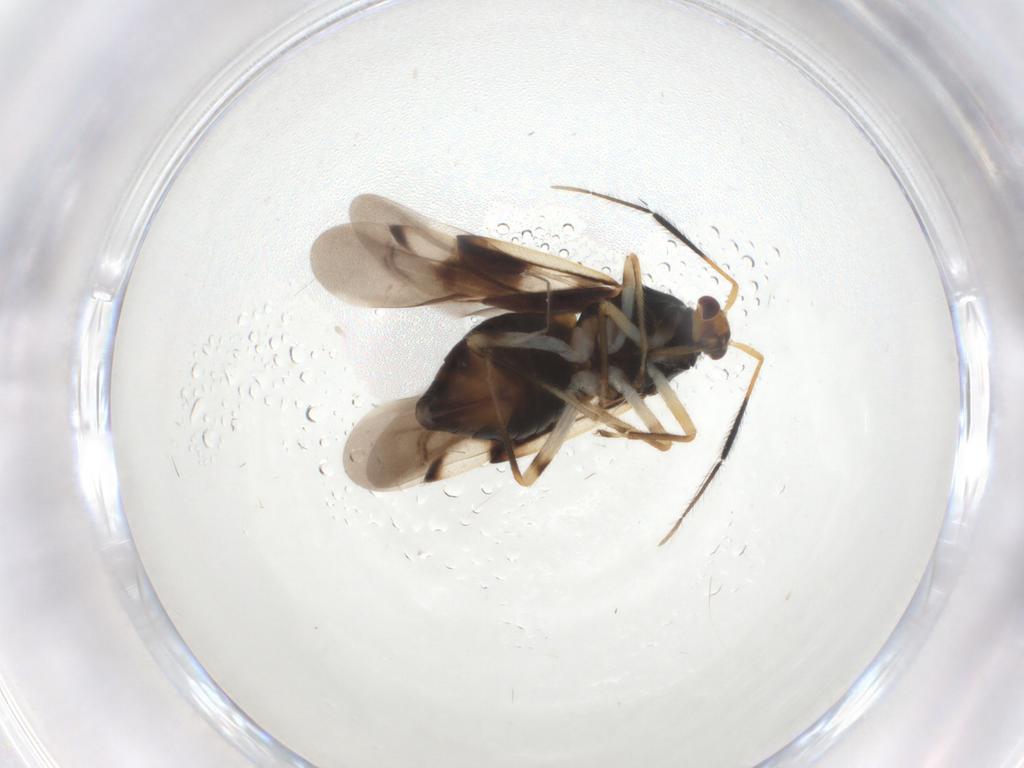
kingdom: Animalia
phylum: Arthropoda
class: Insecta
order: Hemiptera
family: Miridae
